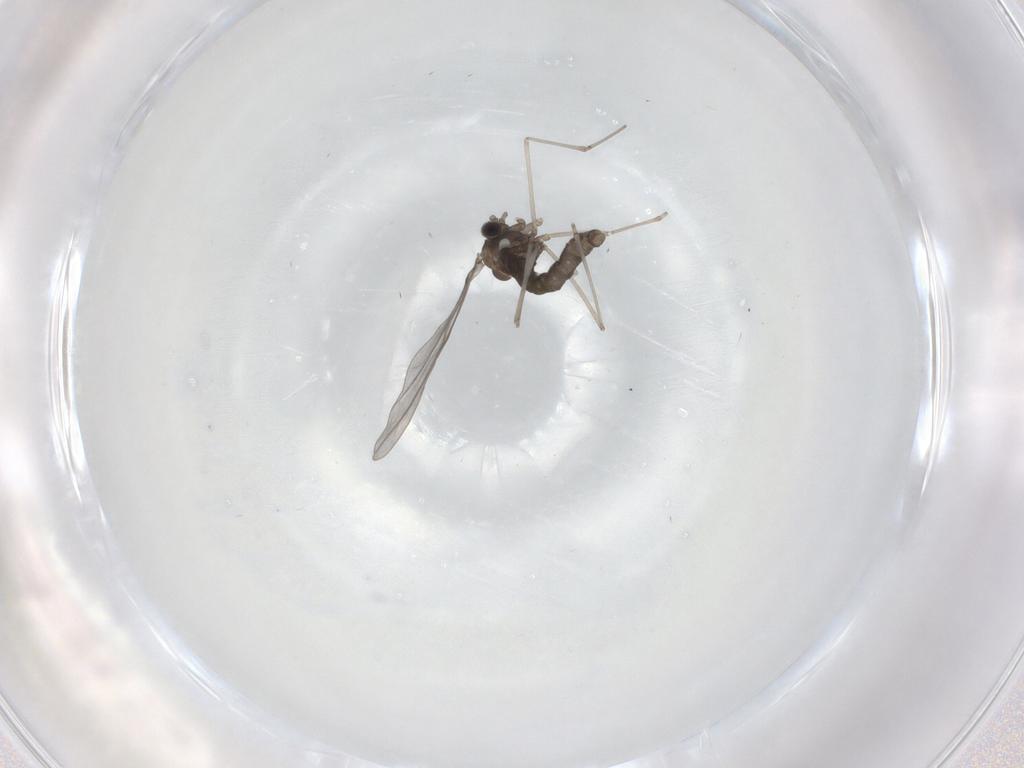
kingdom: Animalia
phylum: Arthropoda
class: Insecta
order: Diptera
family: Cecidomyiidae
